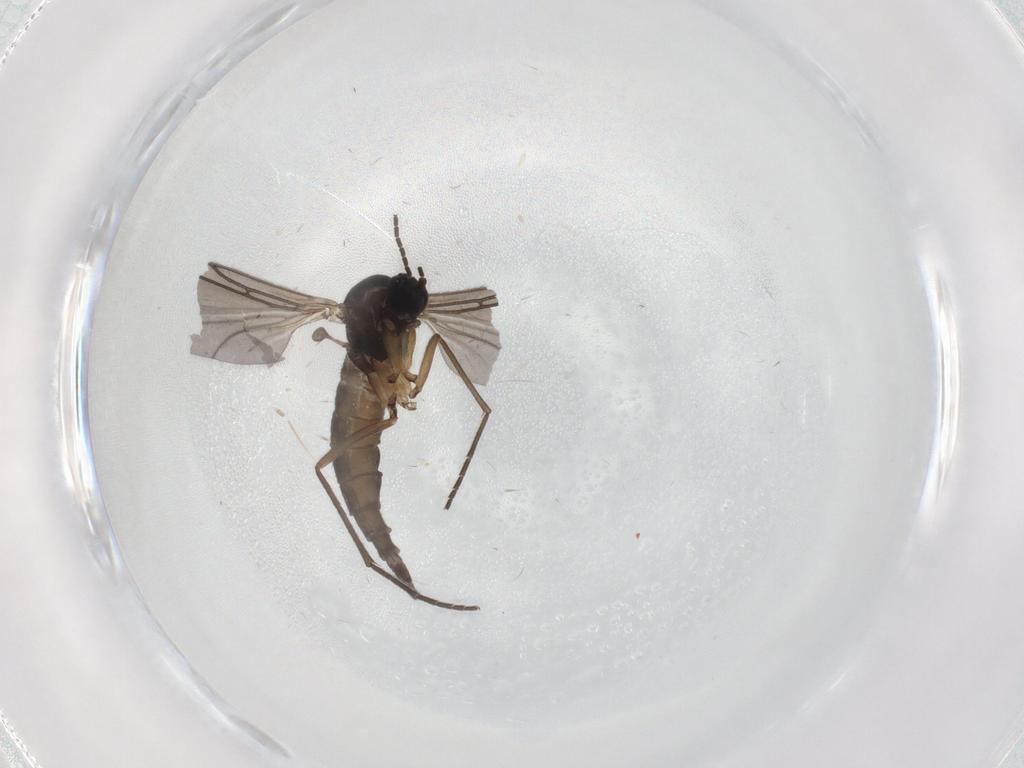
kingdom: Animalia
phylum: Arthropoda
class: Insecta
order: Diptera
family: Sciaridae
